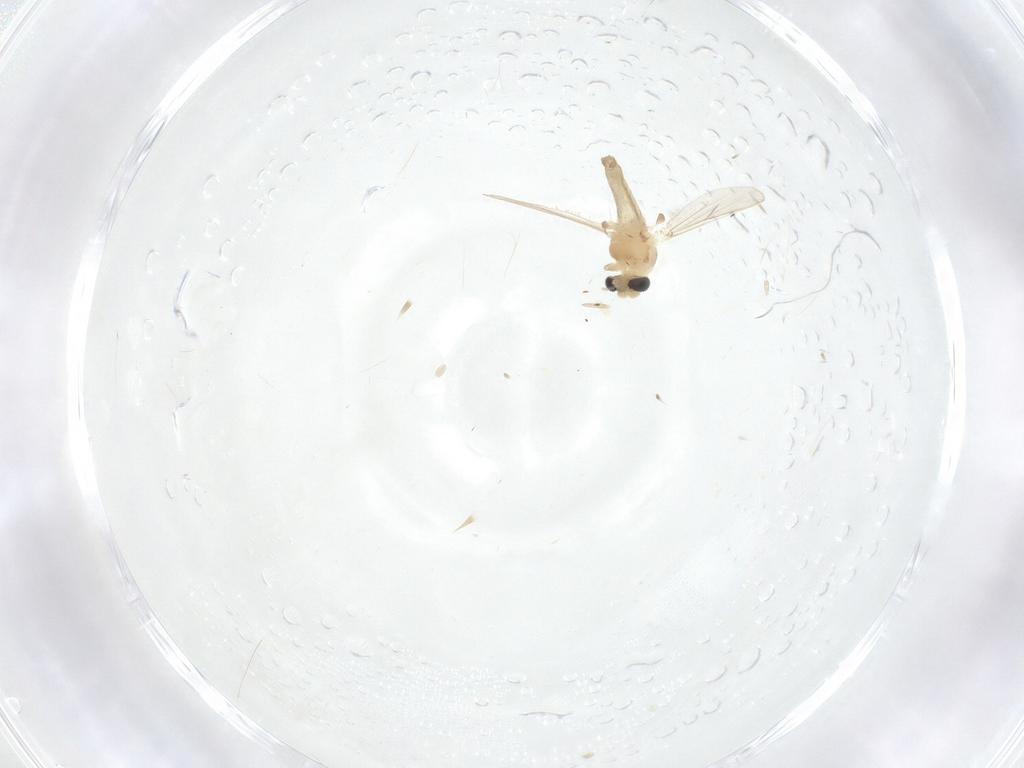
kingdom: Animalia
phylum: Arthropoda
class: Insecta
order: Diptera
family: Chironomidae
